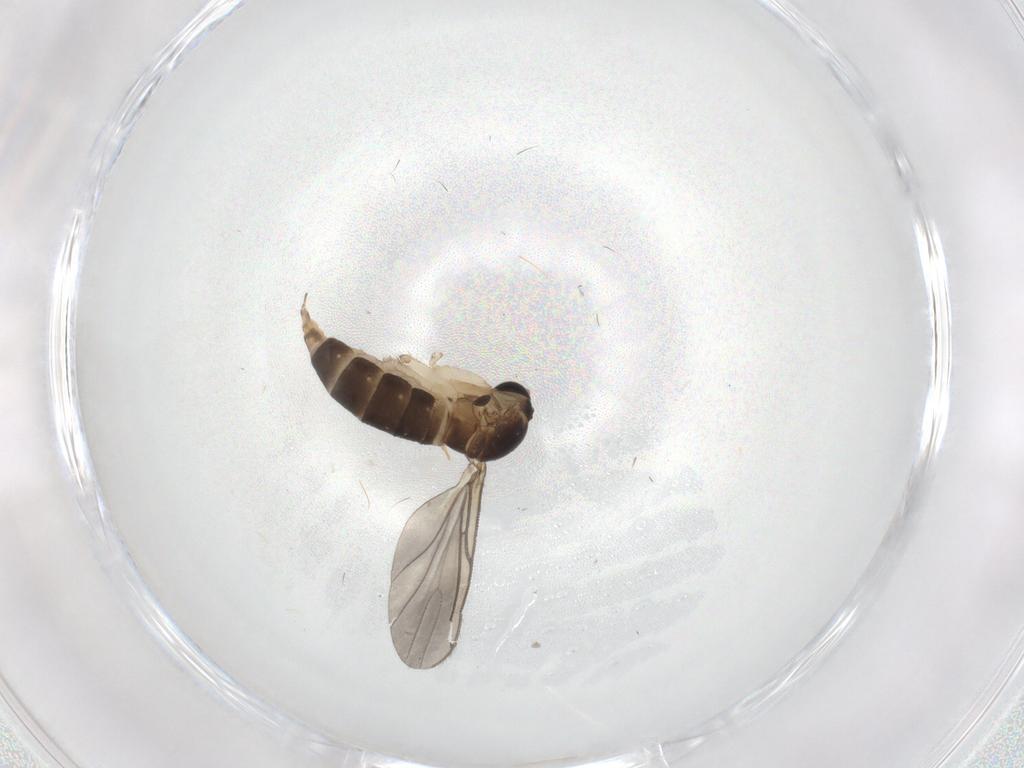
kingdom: Animalia
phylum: Arthropoda
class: Insecta
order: Diptera
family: Sciaridae
